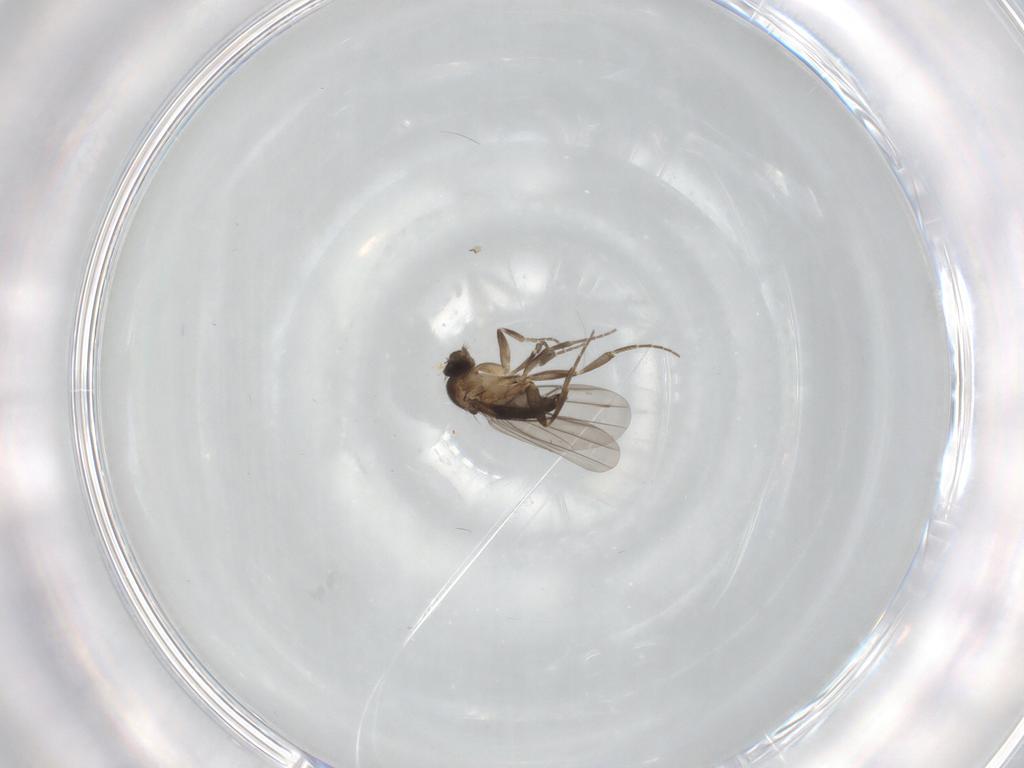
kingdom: Animalia
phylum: Arthropoda
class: Insecta
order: Diptera
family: Phoridae
